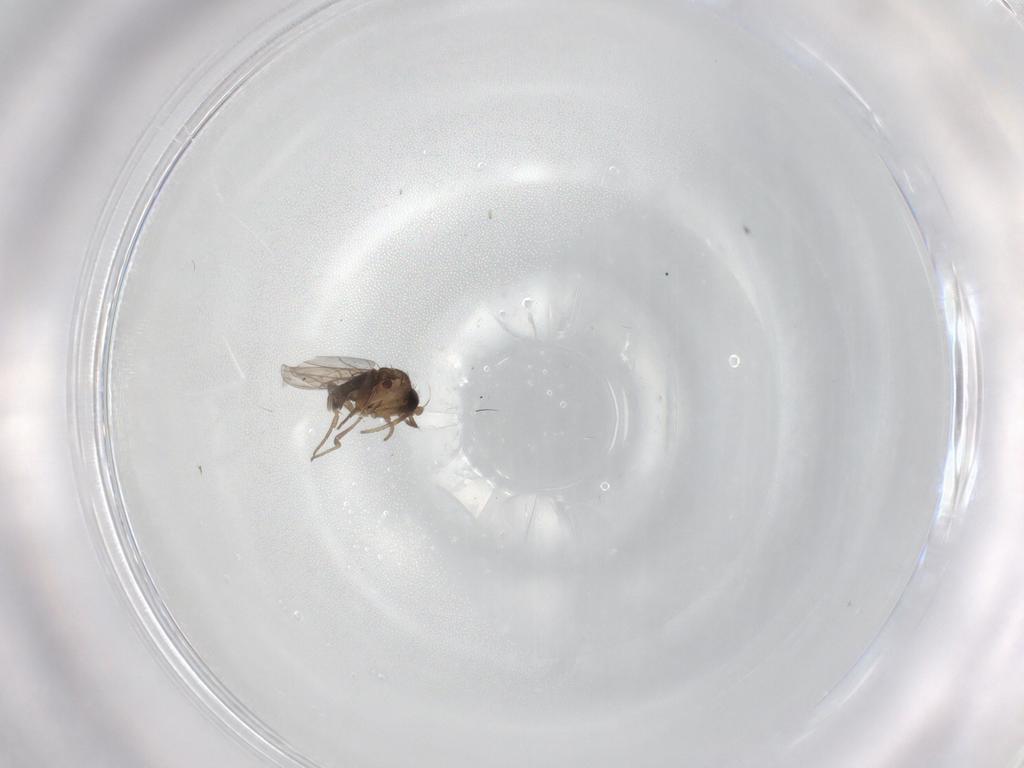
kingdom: Animalia
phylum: Arthropoda
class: Insecta
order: Diptera
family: Phoridae
